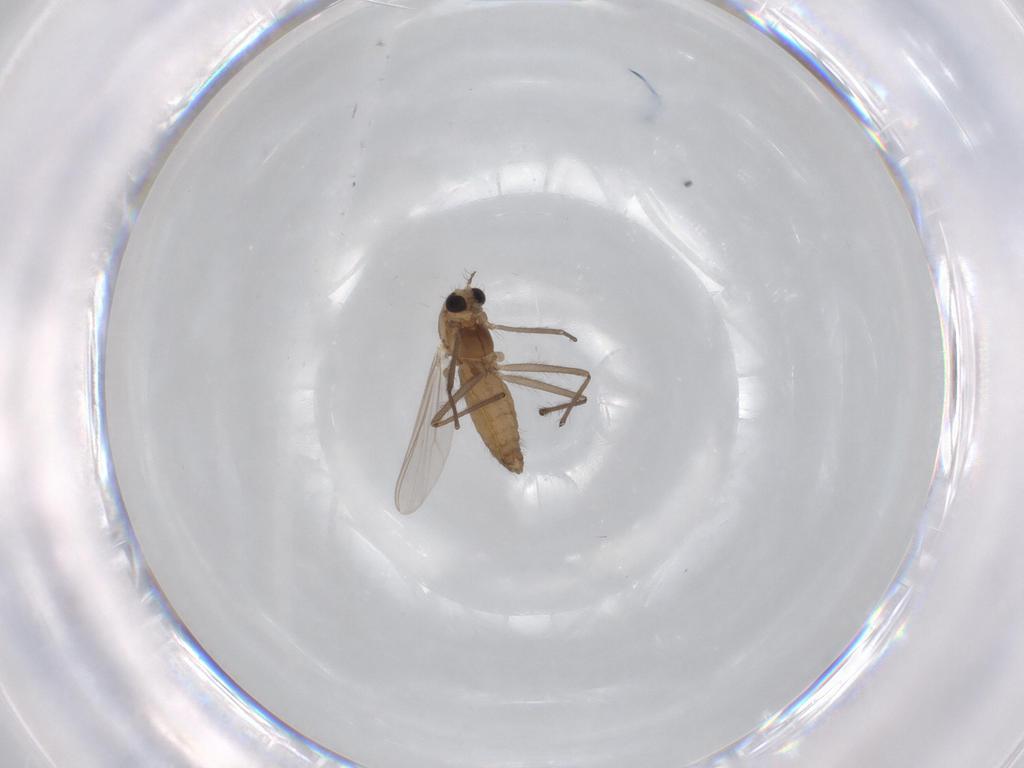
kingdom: Animalia
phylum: Arthropoda
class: Insecta
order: Diptera
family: Chironomidae
